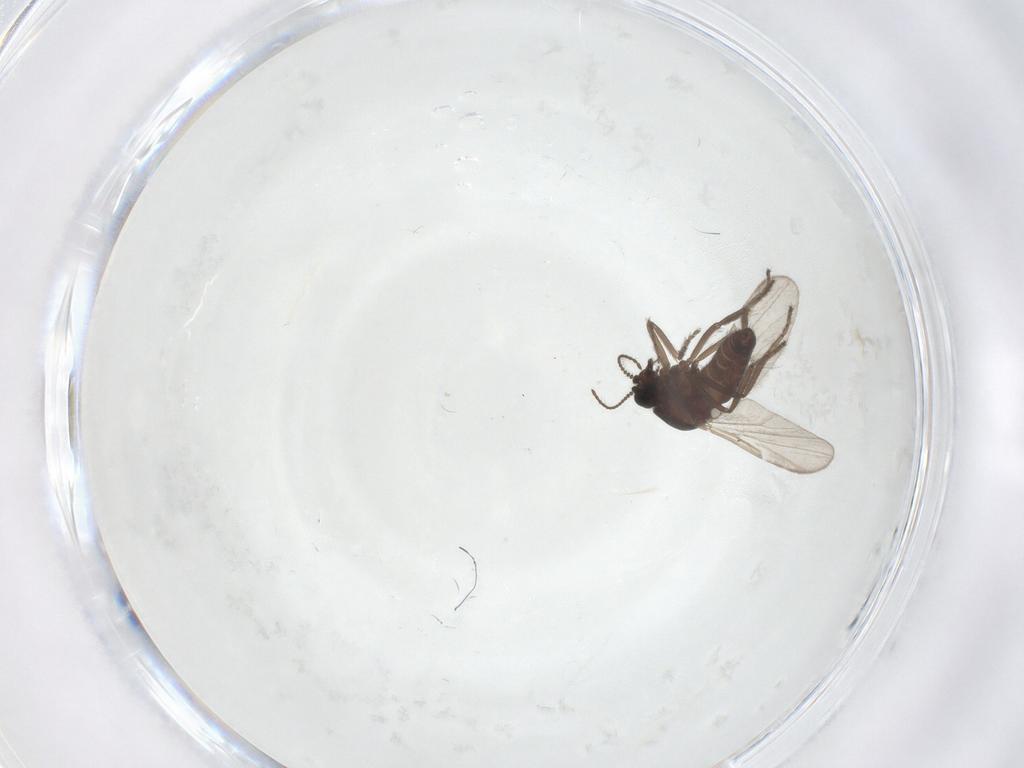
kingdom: Animalia
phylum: Arthropoda
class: Insecta
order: Diptera
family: Ceratopogonidae
